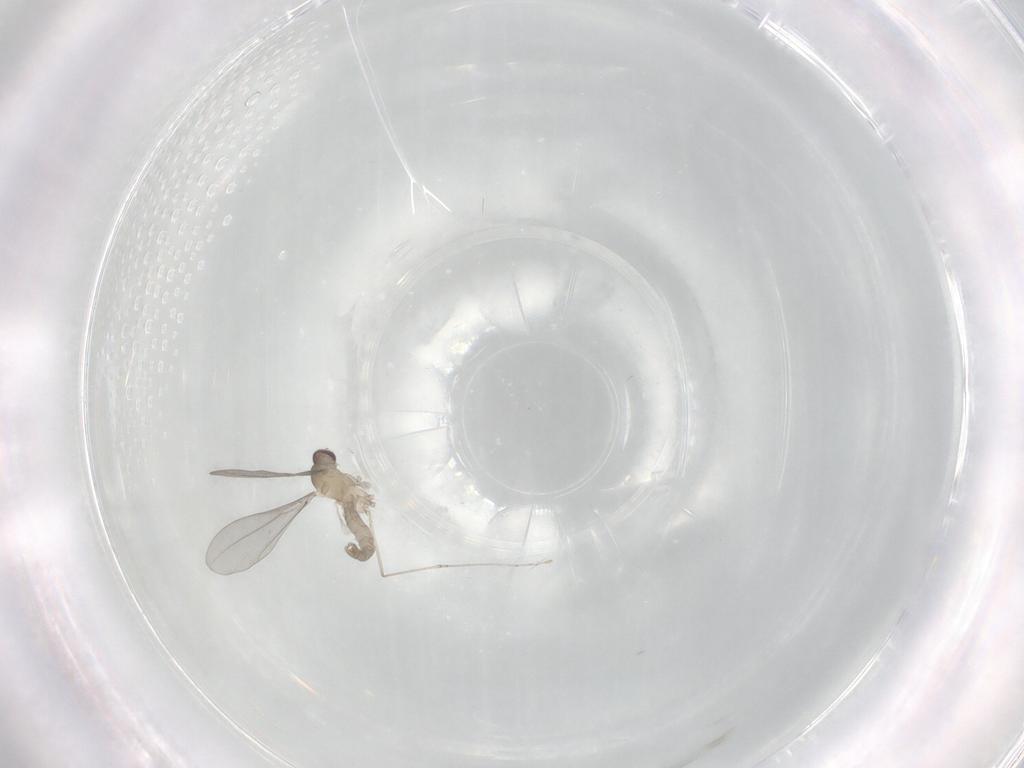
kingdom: Animalia
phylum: Arthropoda
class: Insecta
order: Diptera
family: Cecidomyiidae
